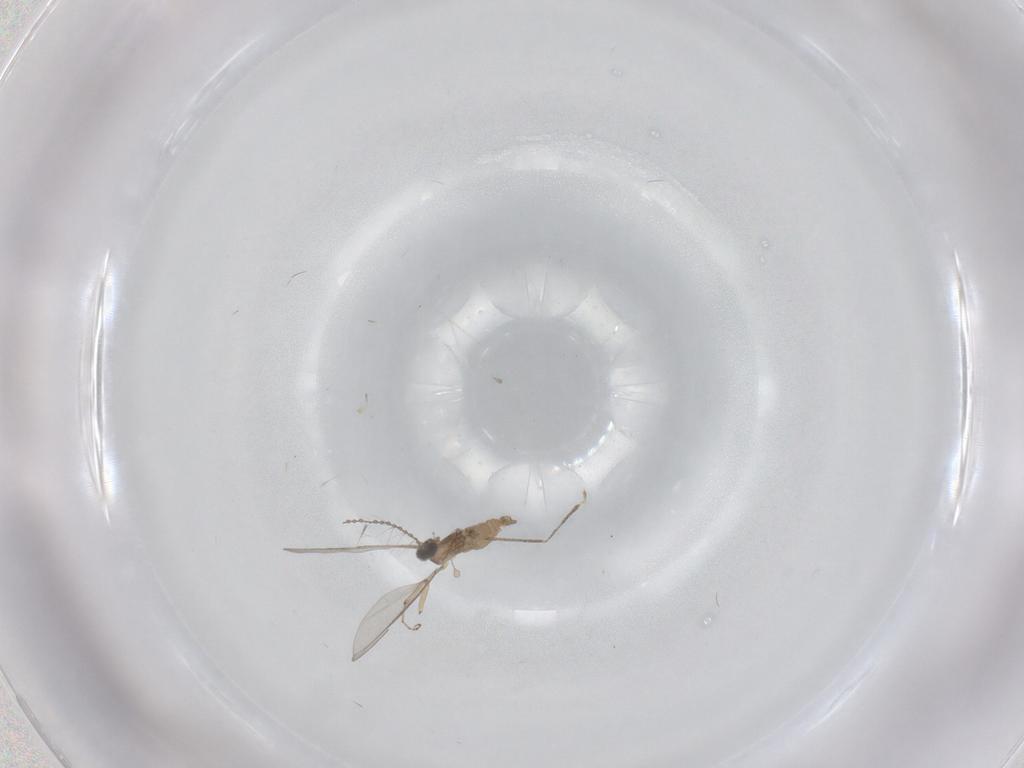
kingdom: Animalia
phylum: Arthropoda
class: Insecta
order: Diptera
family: Cecidomyiidae
